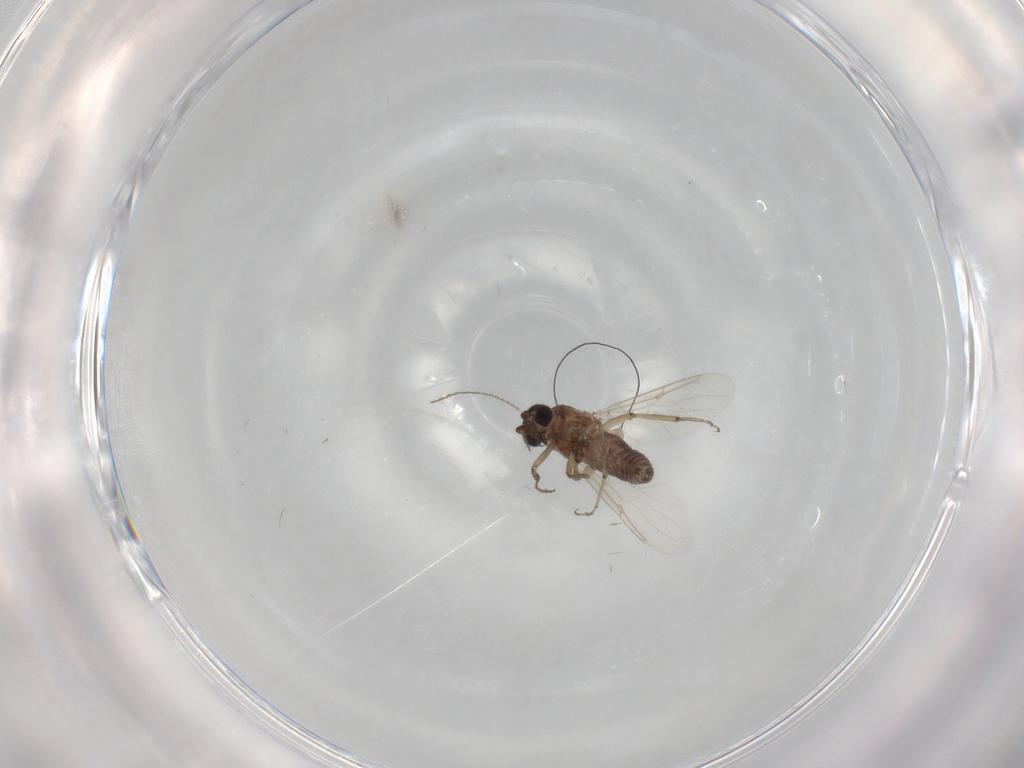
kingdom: Animalia
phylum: Arthropoda
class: Insecta
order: Diptera
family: Ceratopogonidae
